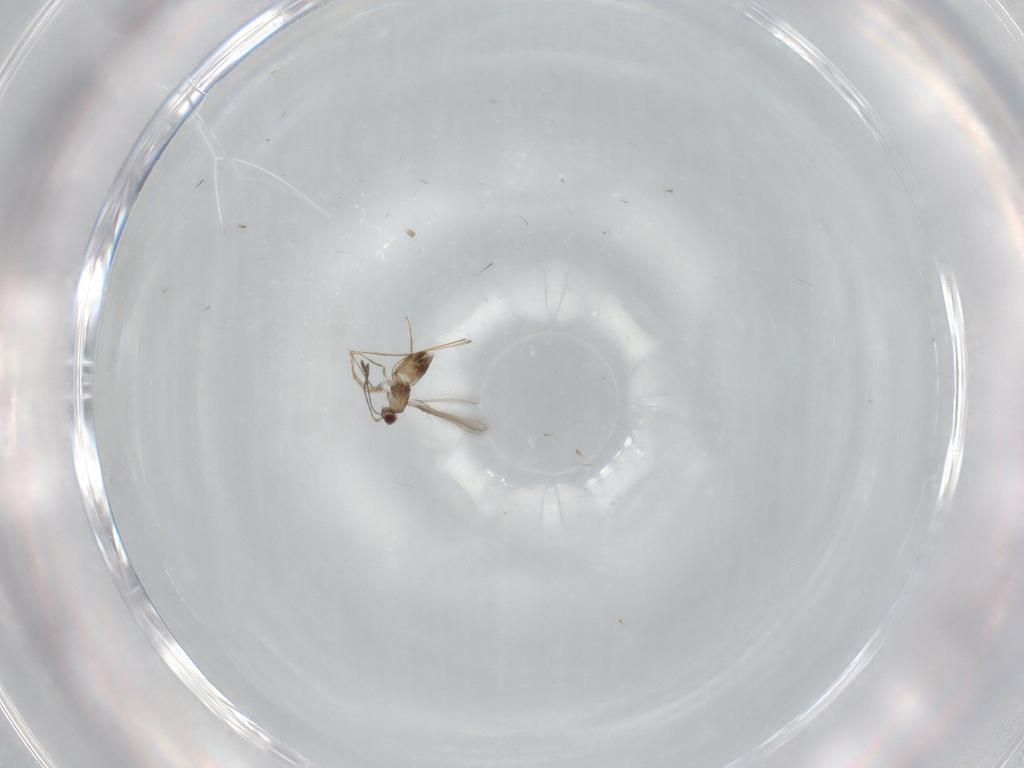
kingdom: Animalia
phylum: Arthropoda
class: Insecta
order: Hymenoptera
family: Mymaridae
